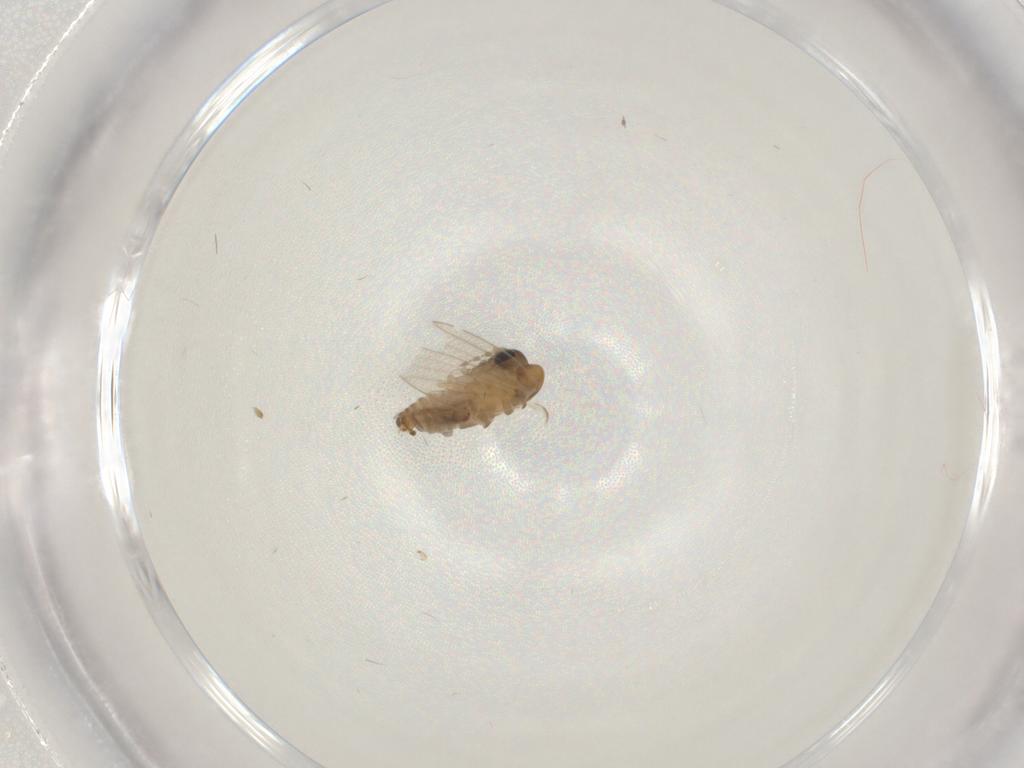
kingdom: Animalia
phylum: Arthropoda
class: Insecta
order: Diptera
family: Psychodidae
